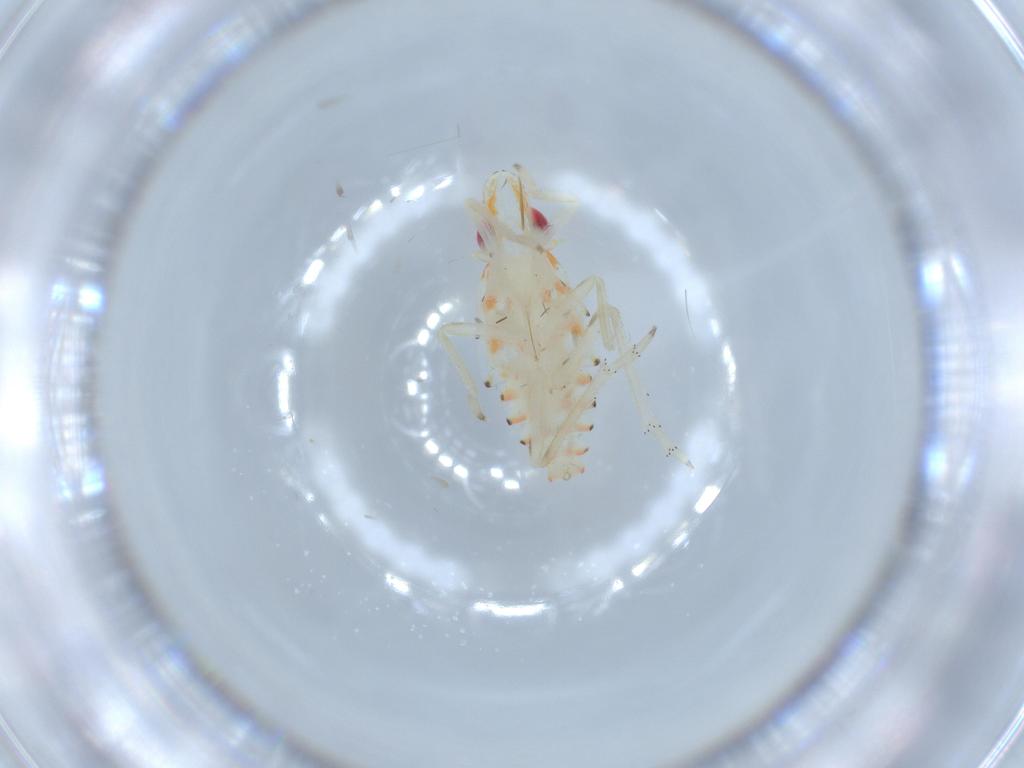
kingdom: Animalia
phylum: Arthropoda
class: Insecta
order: Hemiptera
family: Tropiduchidae
